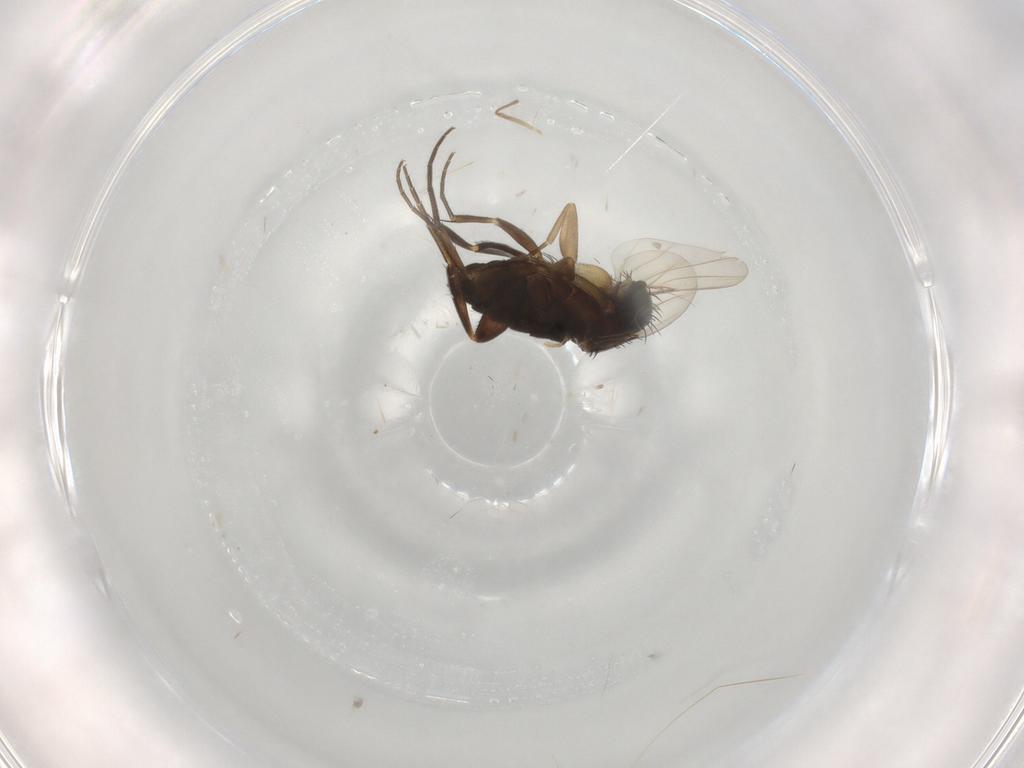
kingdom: Animalia
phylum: Arthropoda
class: Insecta
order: Diptera
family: Phoridae
